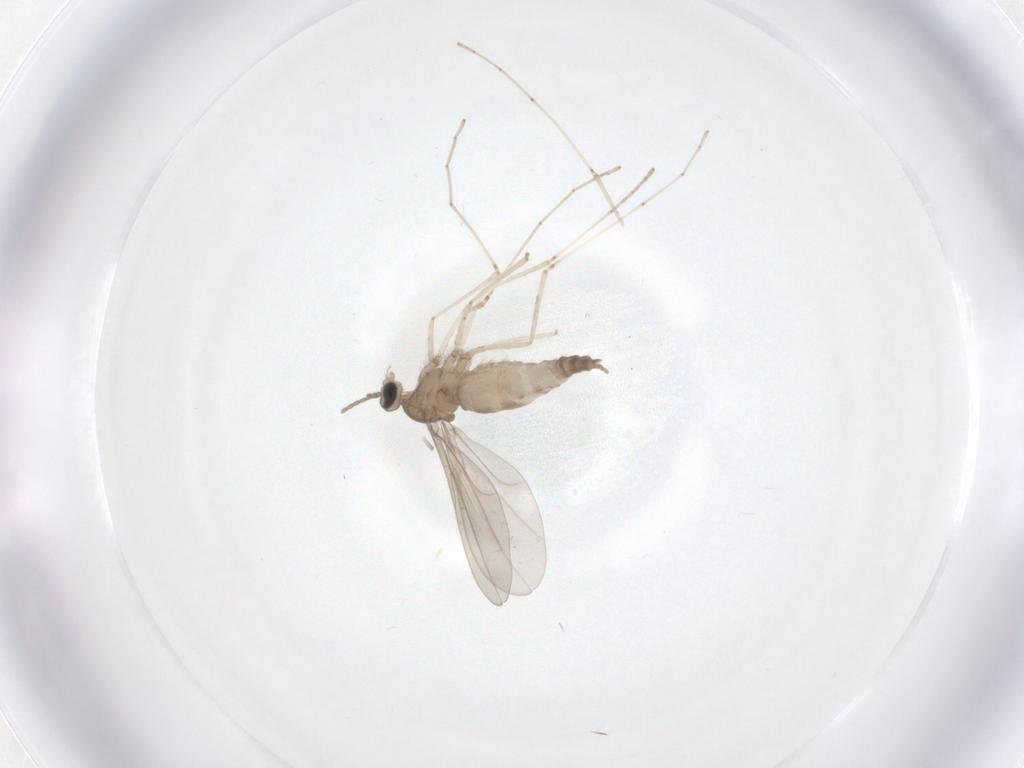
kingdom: Animalia
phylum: Arthropoda
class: Insecta
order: Diptera
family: Cecidomyiidae
